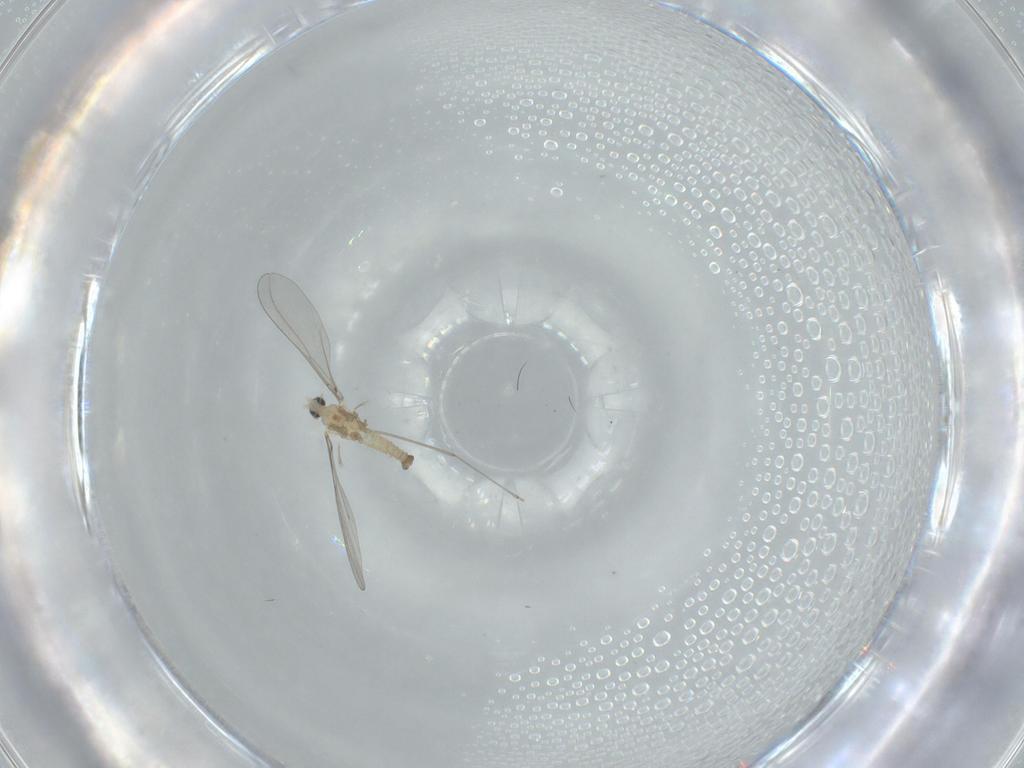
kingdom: Animalia
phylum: Arthropoda
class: Insecta
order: Diptera
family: Cecidomyiidae
